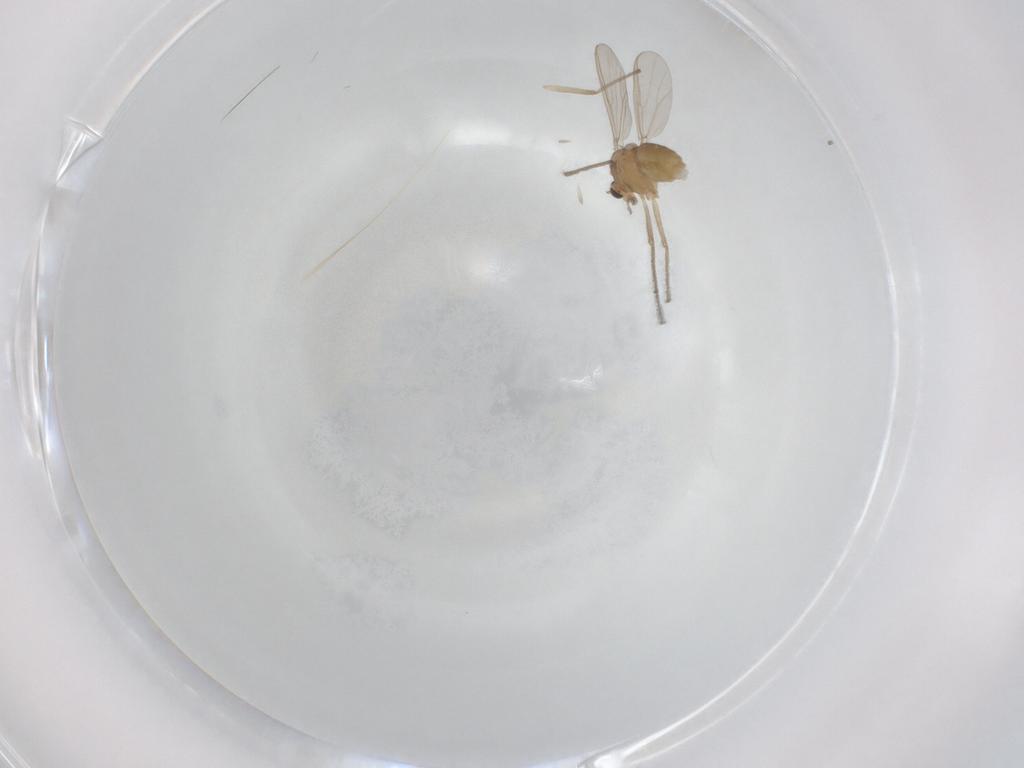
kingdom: Animalia
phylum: Arthropoda
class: Insecta
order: Diptera
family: Chironomidae
